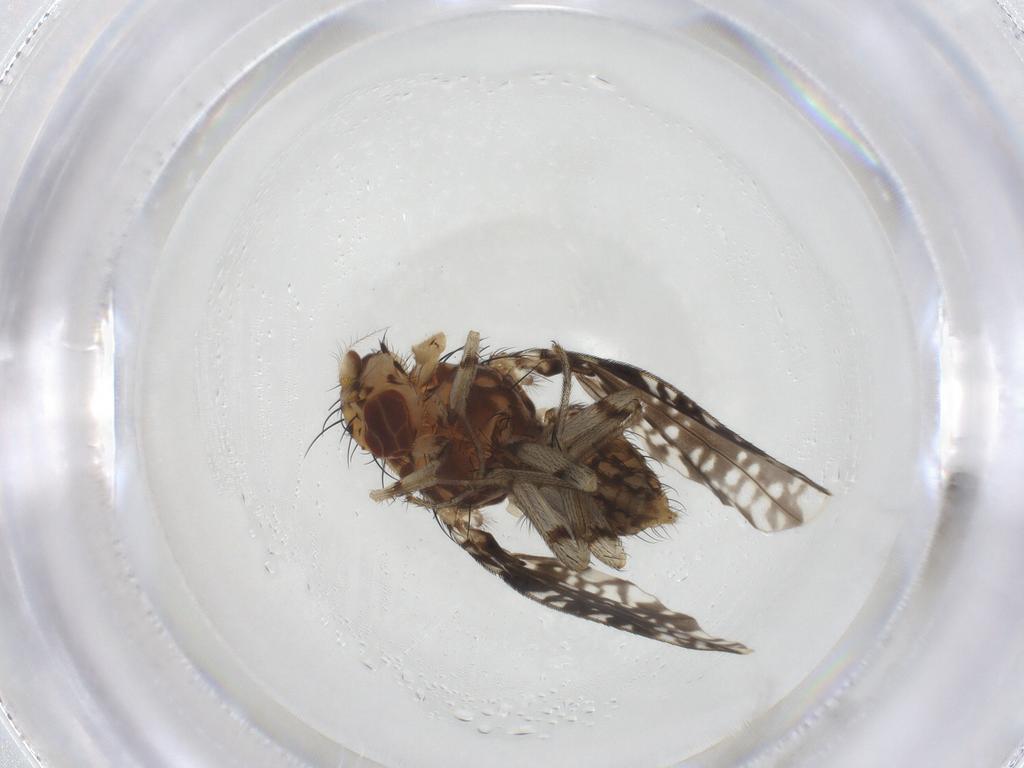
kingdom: Animalia
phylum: Arthropoda
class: Insecta
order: Diptera
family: Lauxaniidae
